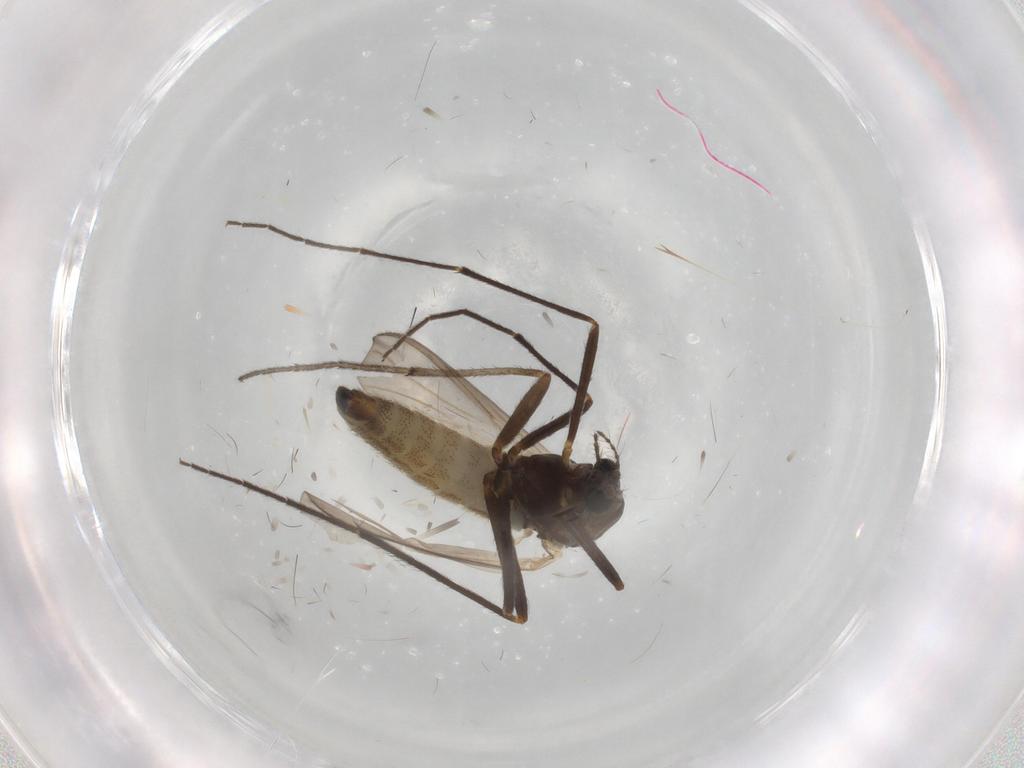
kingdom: Animalia
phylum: Arthropoda
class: Insecta
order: Diptera
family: Chironomidae
